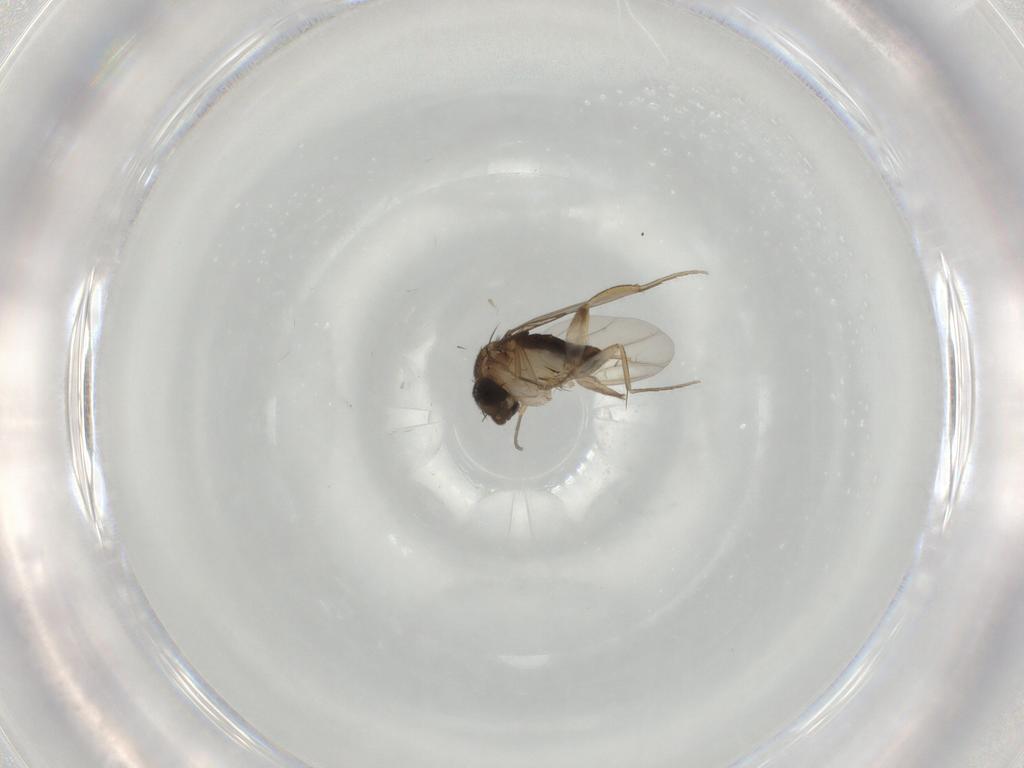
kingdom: Animalia
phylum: Arthropoda
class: Insecta
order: Diptera
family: Ceratopogonidae
